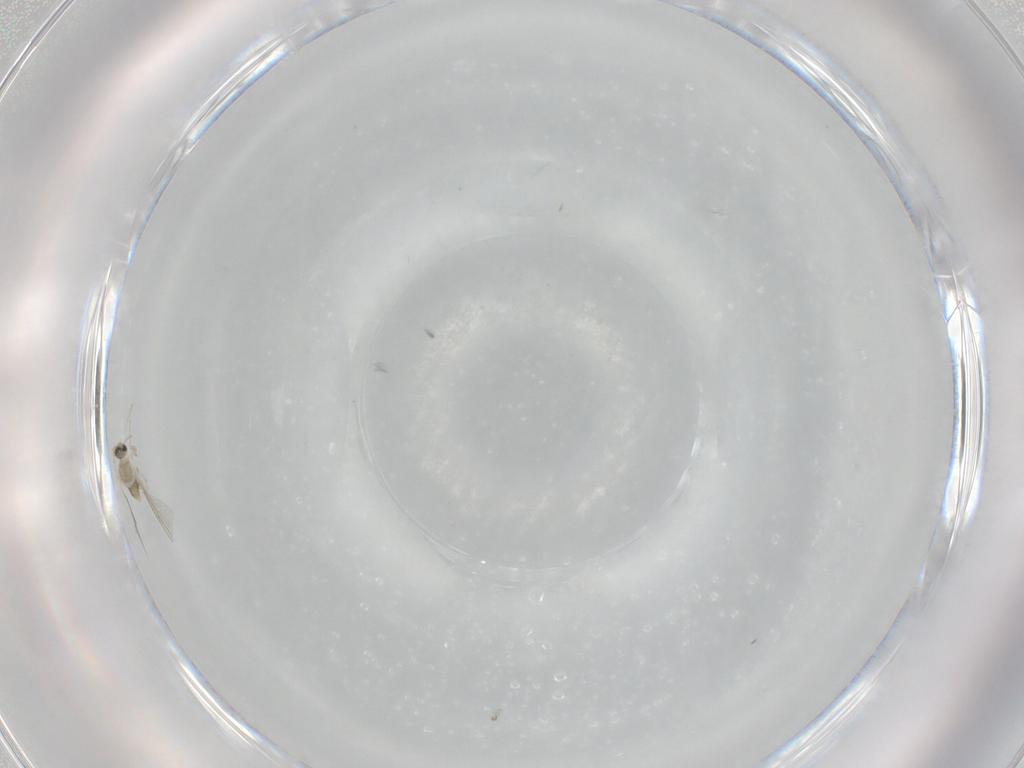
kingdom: Animalia
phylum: Arthropoda
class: Insecta
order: Diptera
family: Cecidomyiidae
